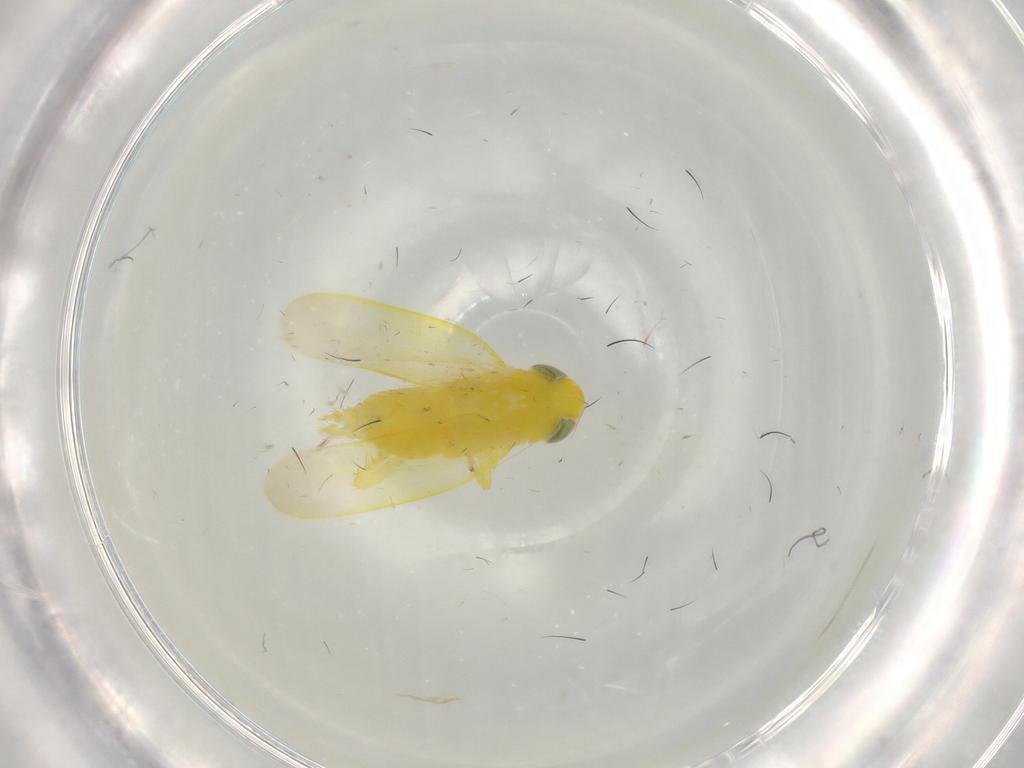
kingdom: Animalia
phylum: Arthropoda
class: Insecta
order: Hemiptera
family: Cicadellidae
